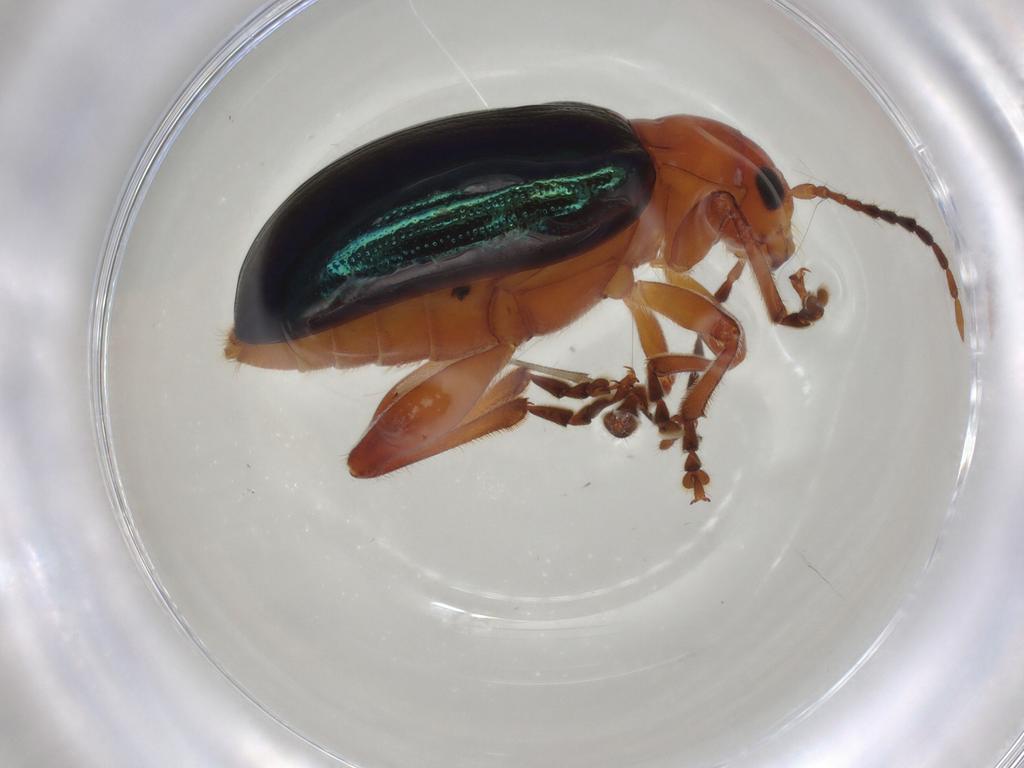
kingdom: Animalia
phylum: Arthropoda
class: Insecta
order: Coleoptera
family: Chrysomelidae
